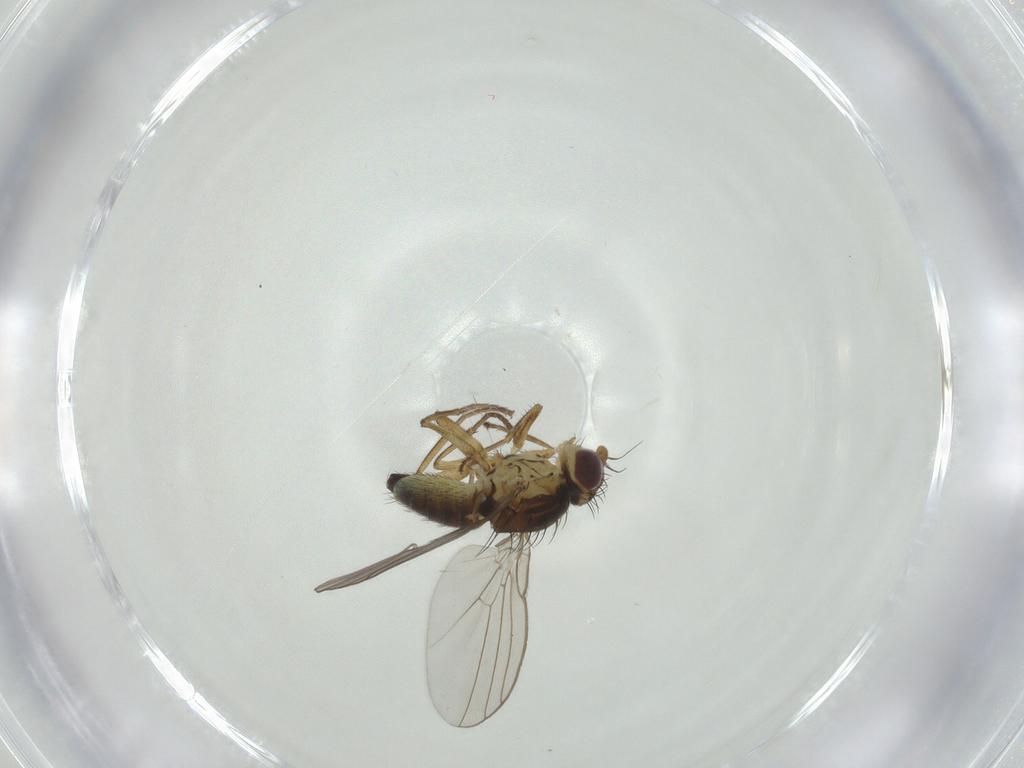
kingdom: Animalia
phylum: Arthropoda
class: Insecta
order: Diptera
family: Agromyzidae
